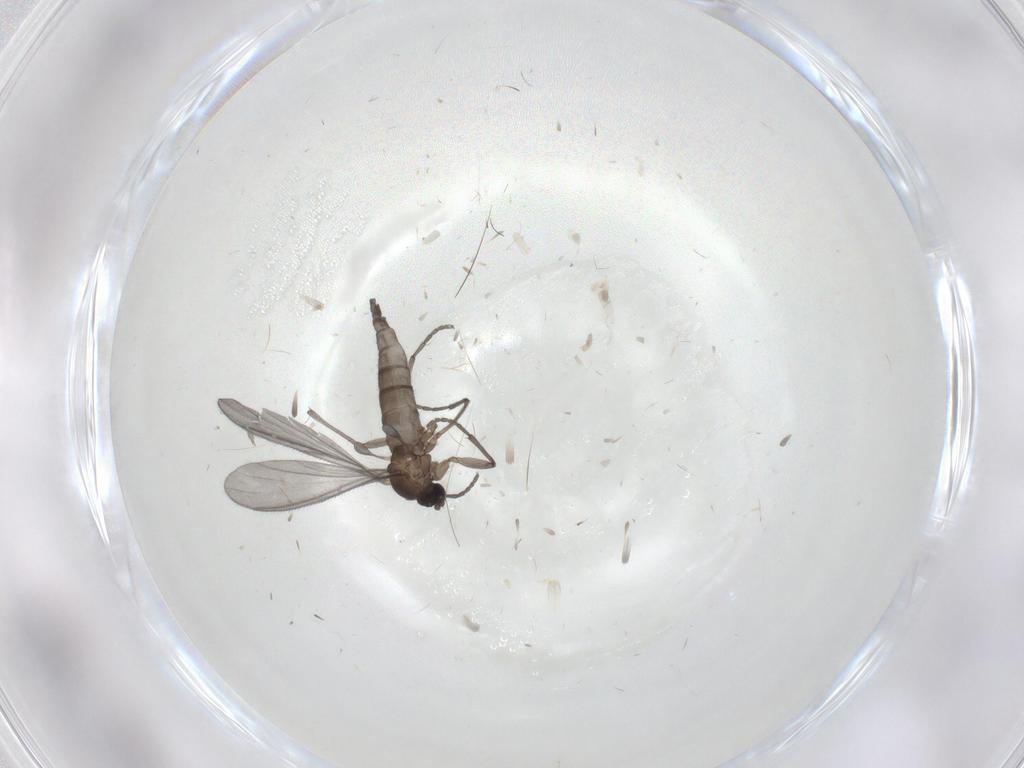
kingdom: Animalia
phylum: Arthropoda
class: Insecta
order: Diptera
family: Sciaridae
